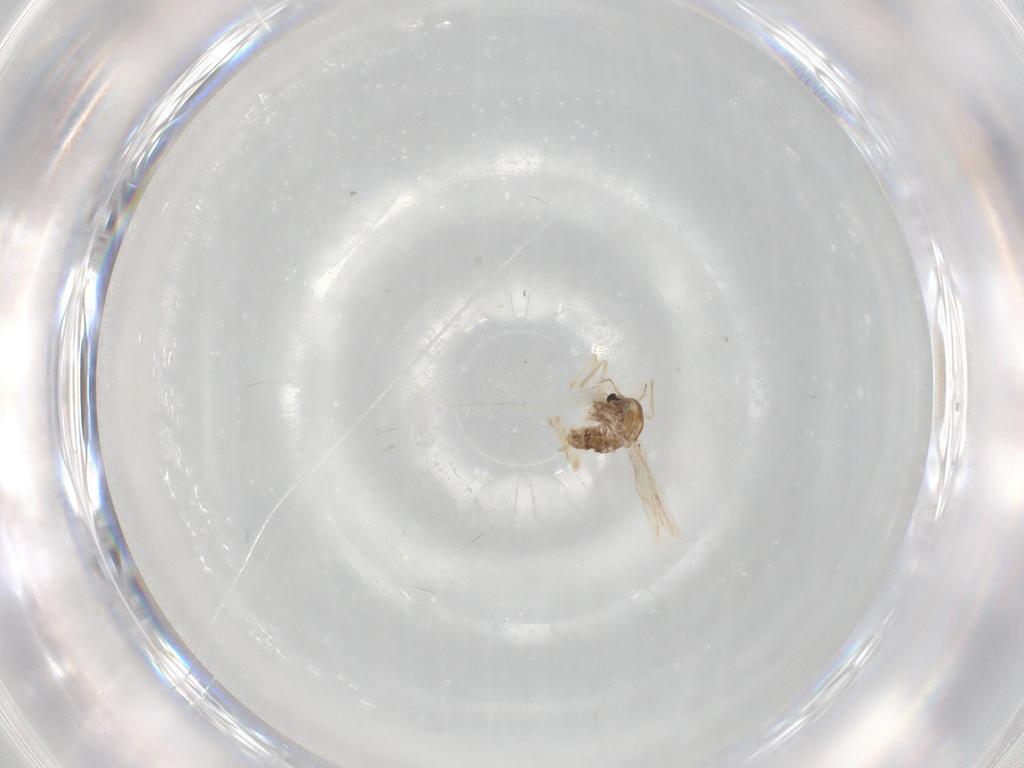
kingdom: Animalia
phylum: Arthropoda
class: Insecta
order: Diptera
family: Chironomidae
